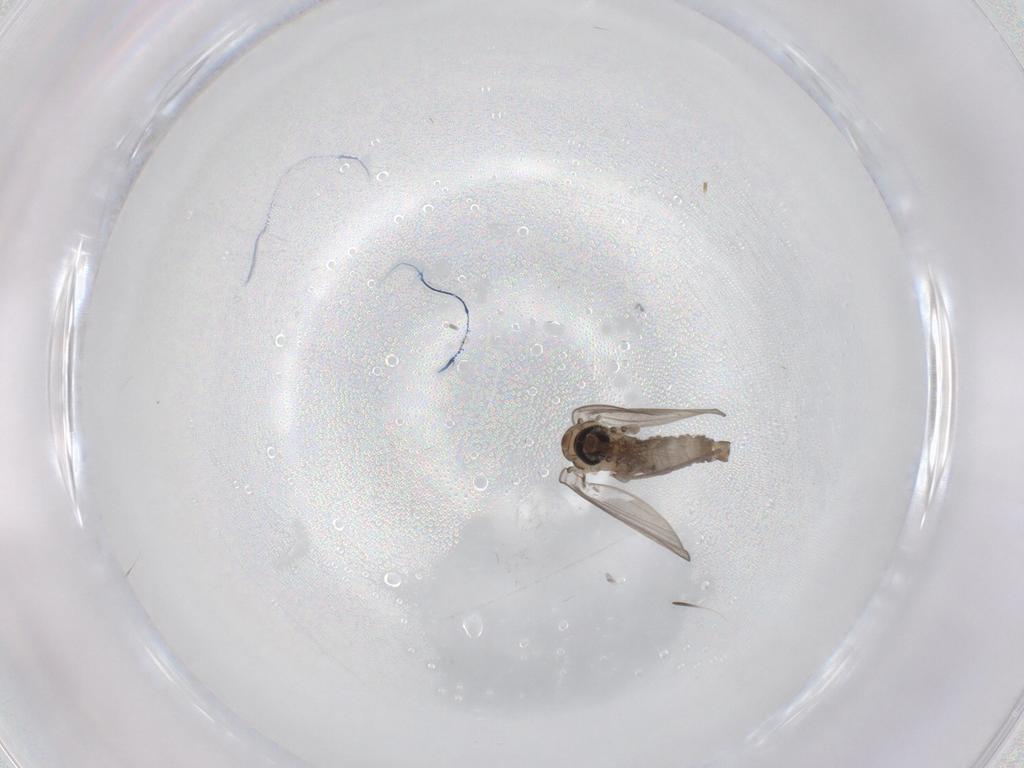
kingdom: Animalia
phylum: Arthropoda
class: Insecta
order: Diptera
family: Psychodidae
